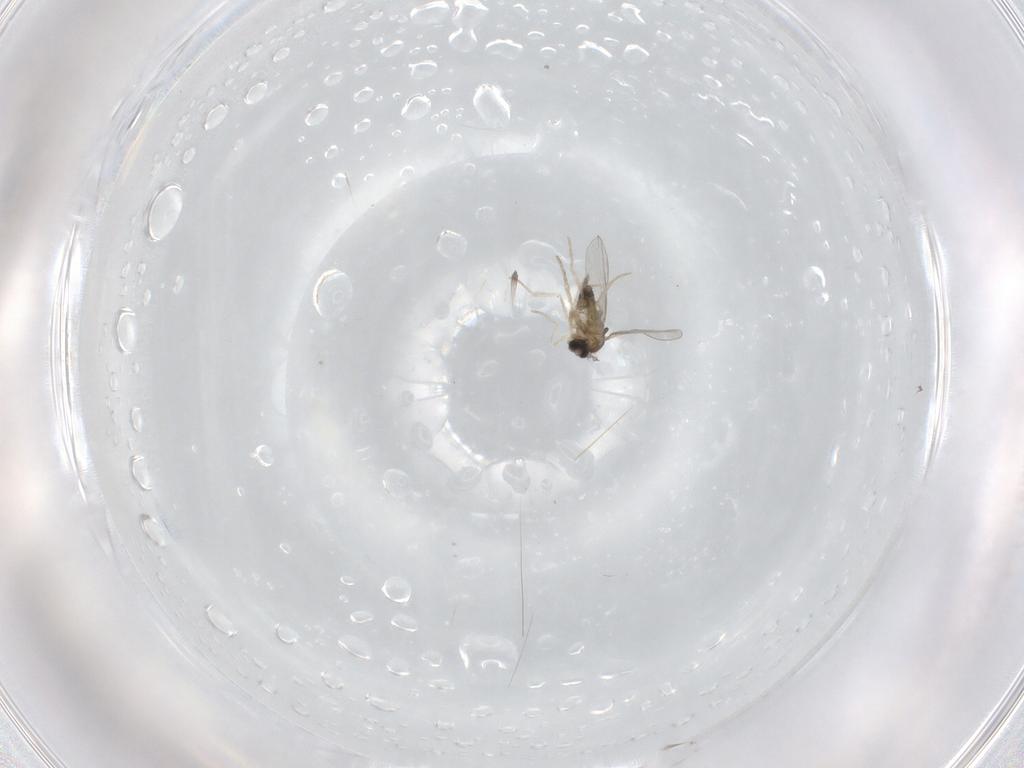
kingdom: Animalia
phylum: Arthropoda
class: Insecta
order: Diptera
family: Cecidomyiidae
